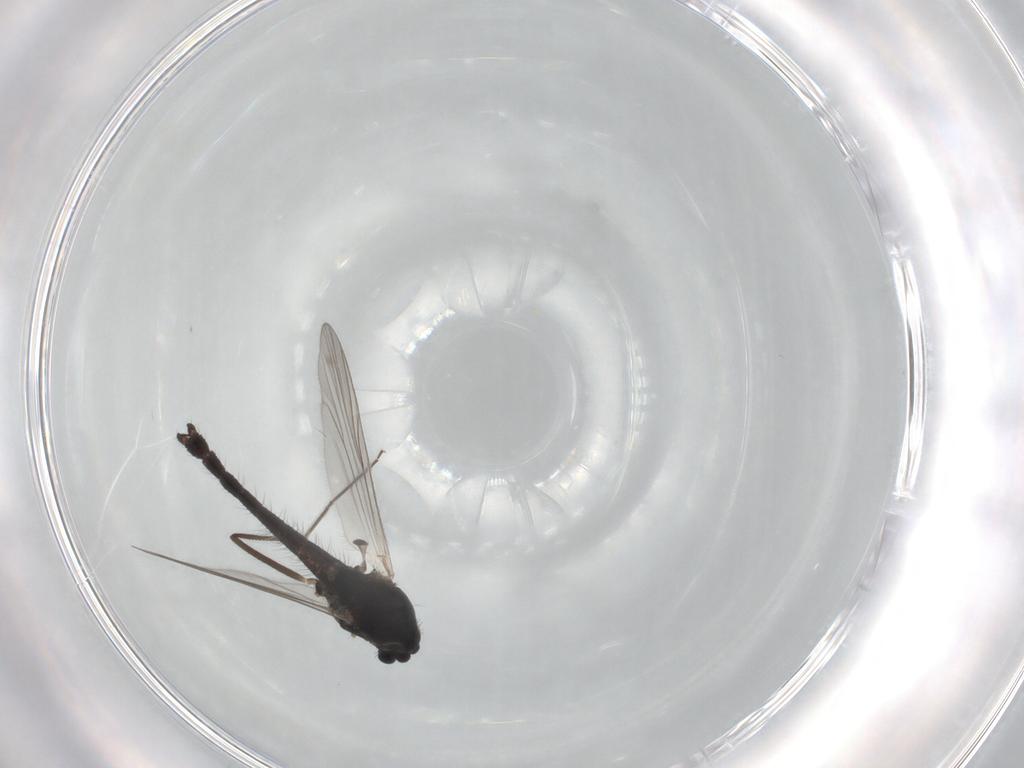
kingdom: Animalia
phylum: Arthropoda
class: Insecta
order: Diptera
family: Chironomidae
